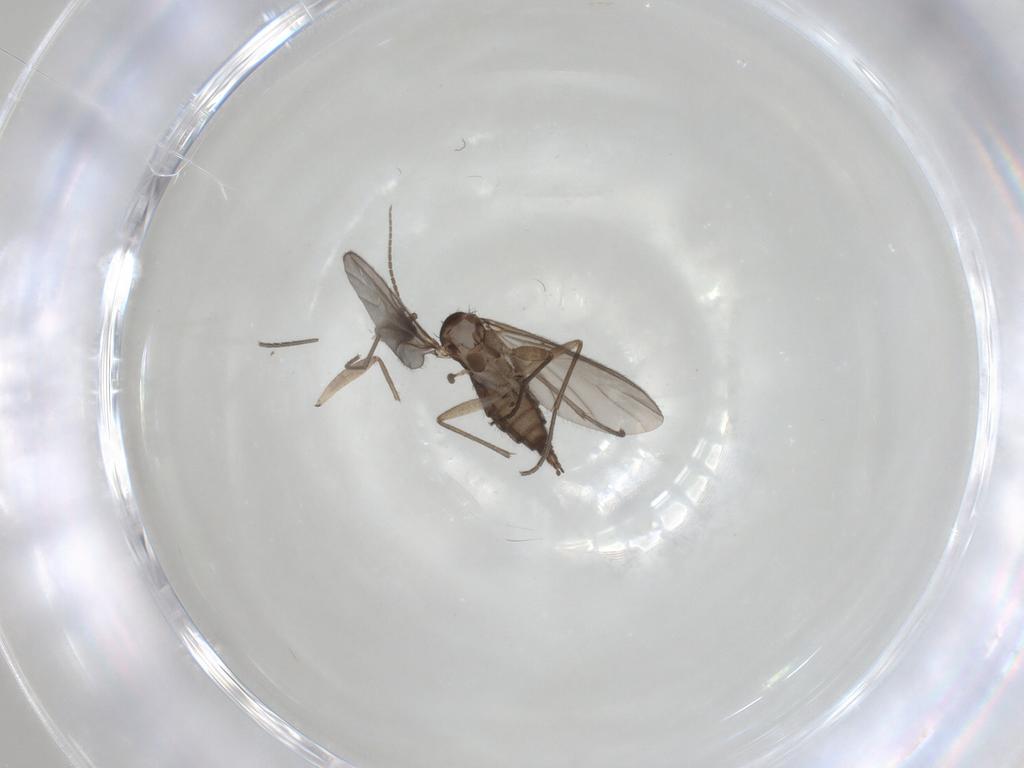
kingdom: Animalia
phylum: Arthropoda
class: Insecta
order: Diptera
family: Sciaridae
